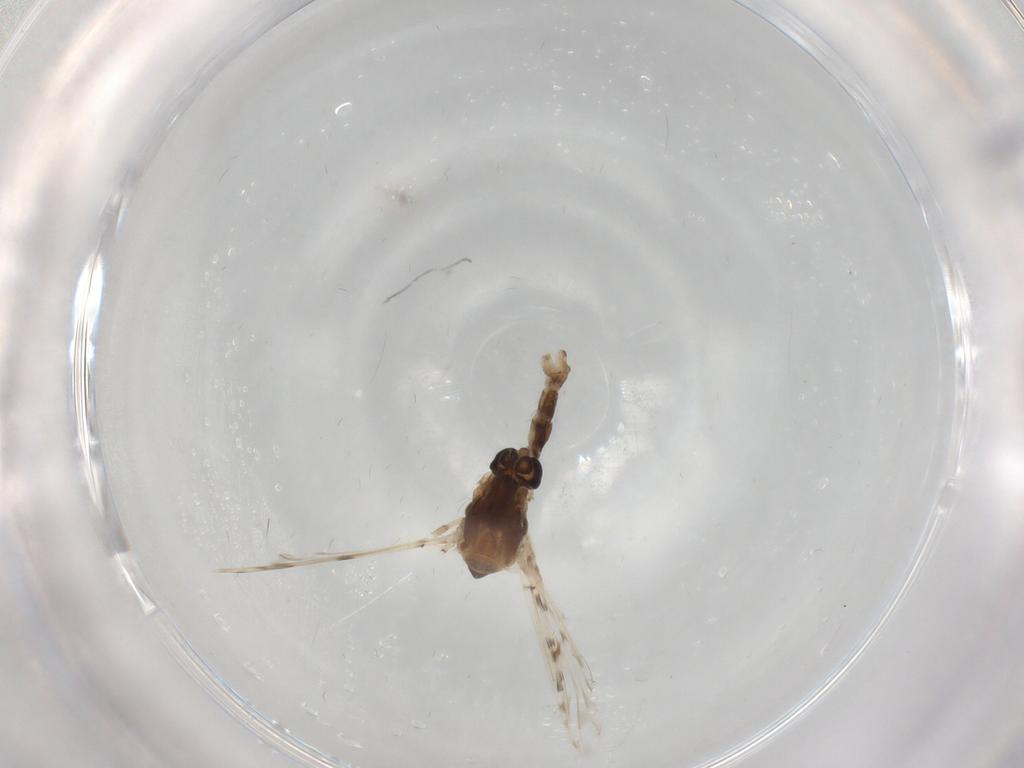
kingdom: Animalia
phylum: Arthropoda
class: Insecta
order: Diptera
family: Chironomidae
